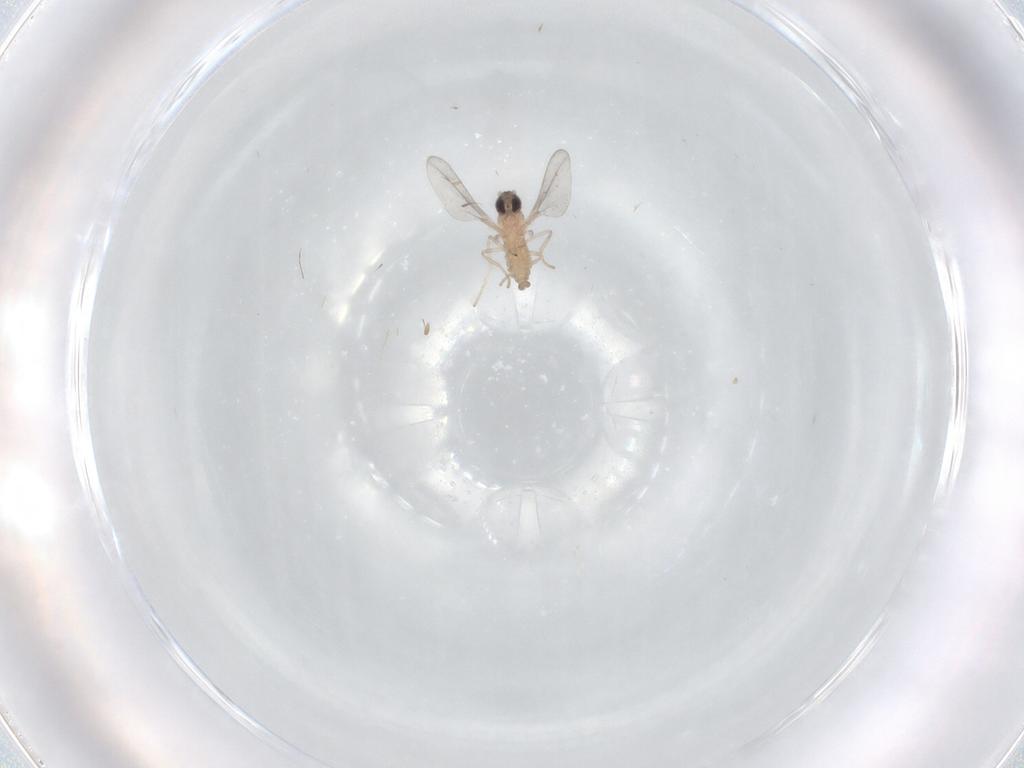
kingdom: Animalia
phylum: Arthropoda
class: Insecta
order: Diptera
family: Cecidomyiidae
